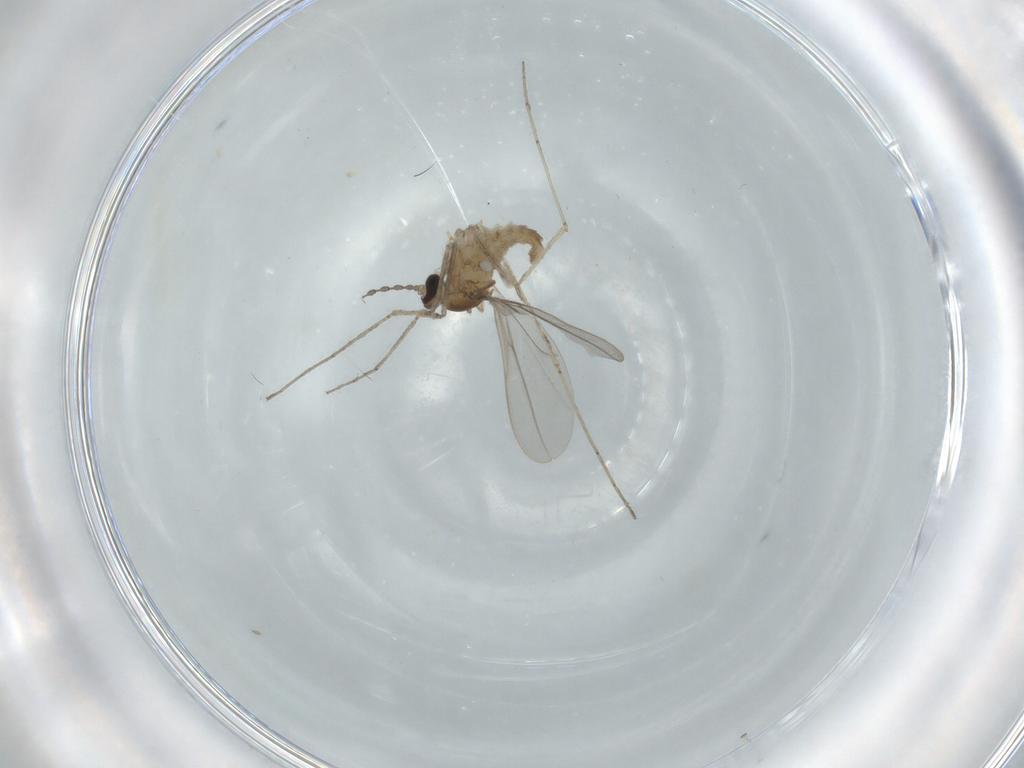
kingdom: Animalia
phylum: Arthropoda
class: Insecta
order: Diptera
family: Cecidomyiidae
